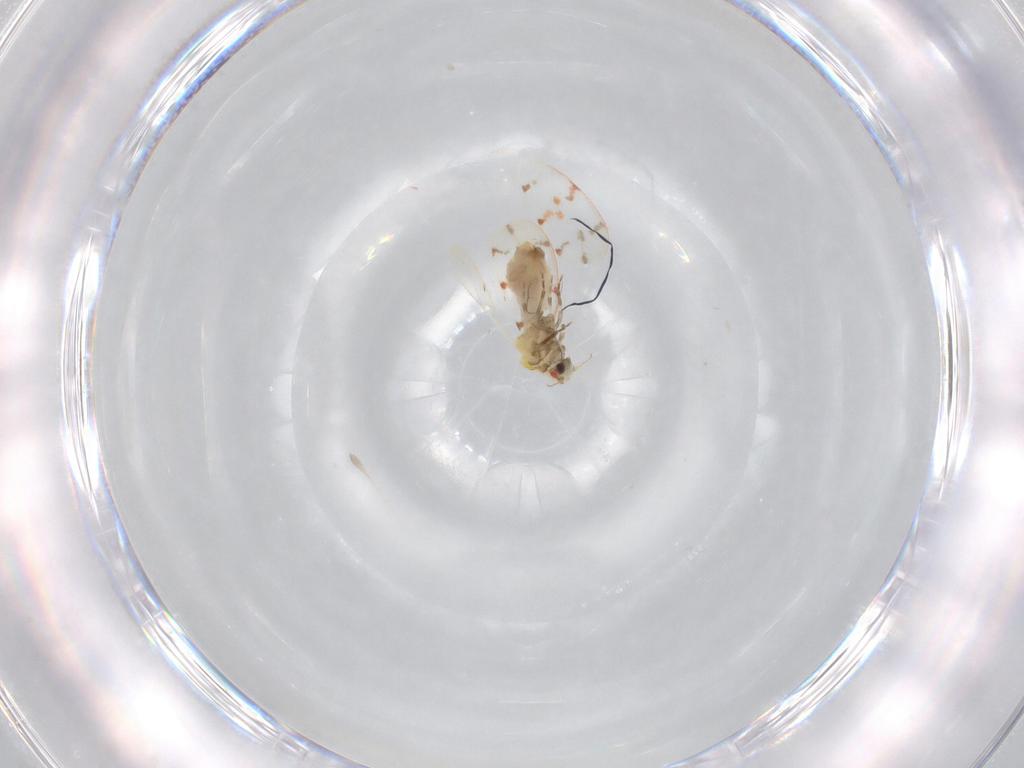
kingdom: Animalia
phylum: Arthropoda
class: Insecta
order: Hemiptera
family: Aleyrodidae
